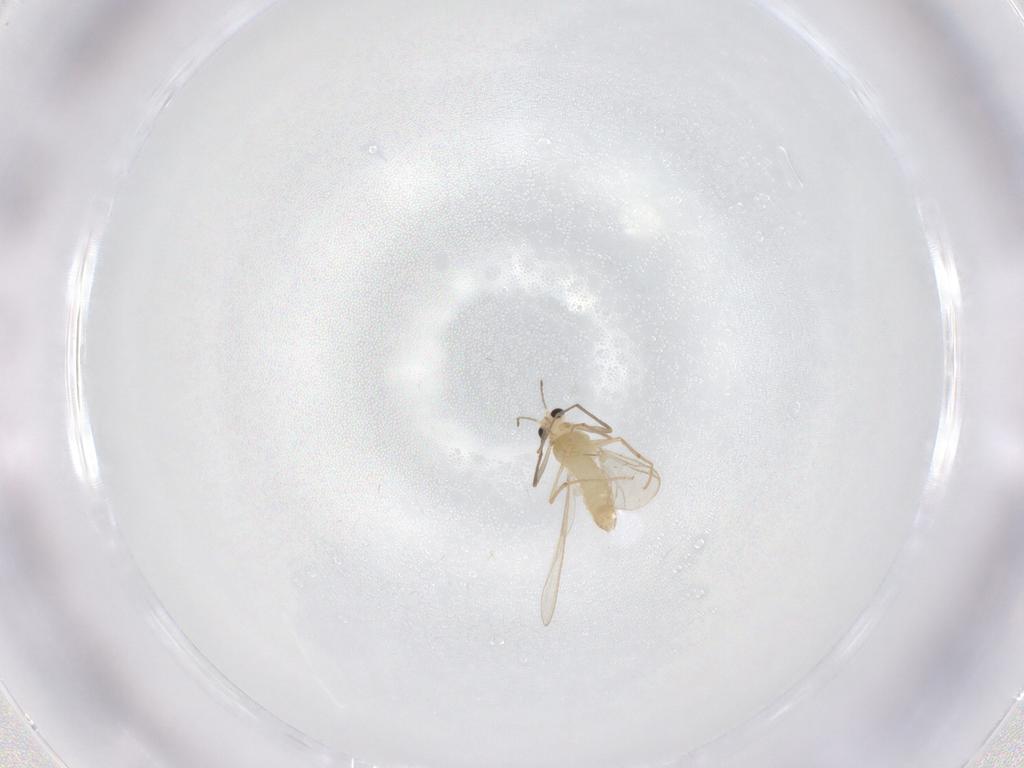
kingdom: Animalia
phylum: Arthropoda
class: Insecta
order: Diptera
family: Chironomidae
